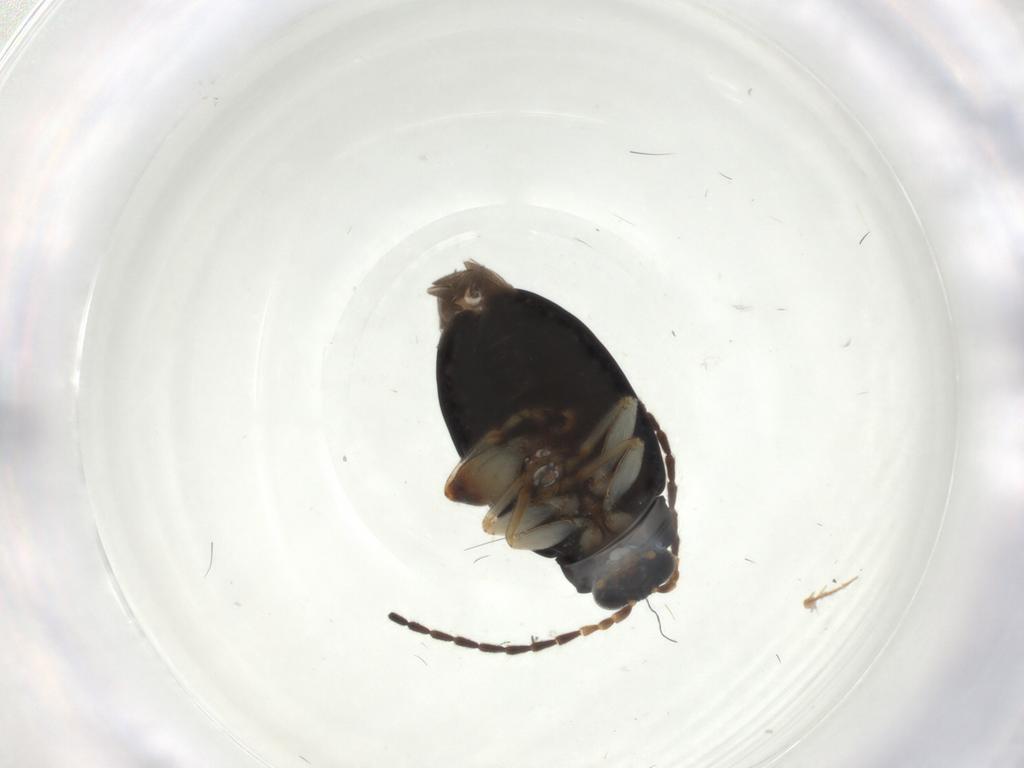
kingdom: Animalia
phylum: Arthropoda
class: Insecta
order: Coleoptera
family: Chrysomelidae
